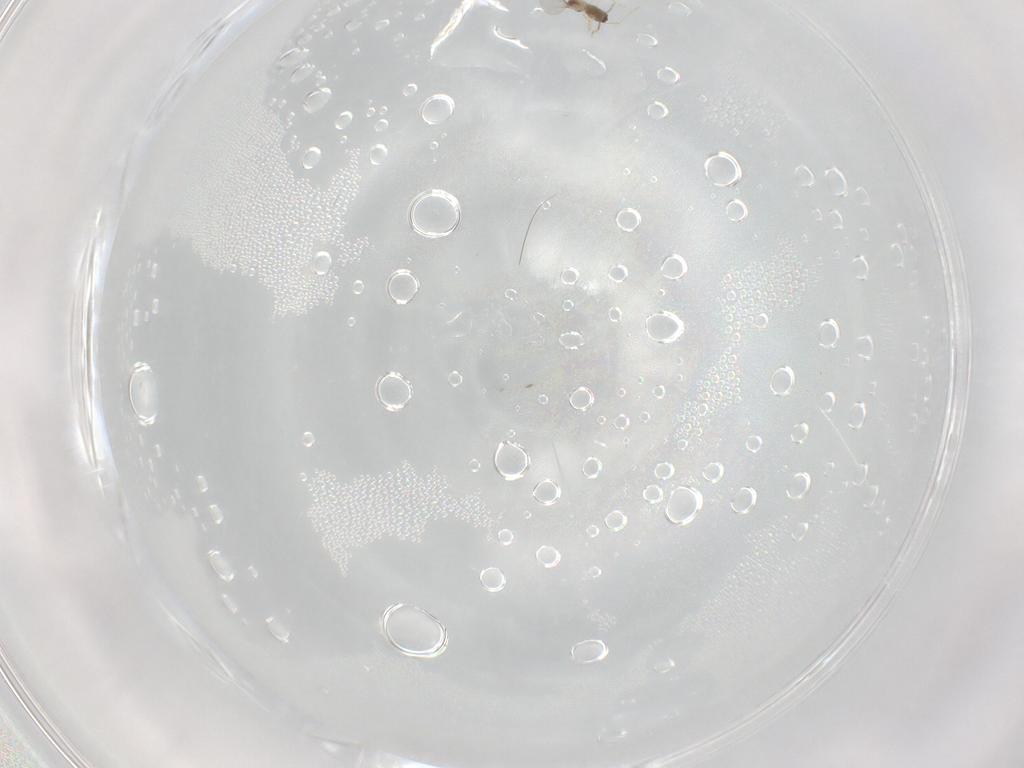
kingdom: Animalia
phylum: Arthropoda
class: Insecta
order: Diptera
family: Cecidomyiidae
